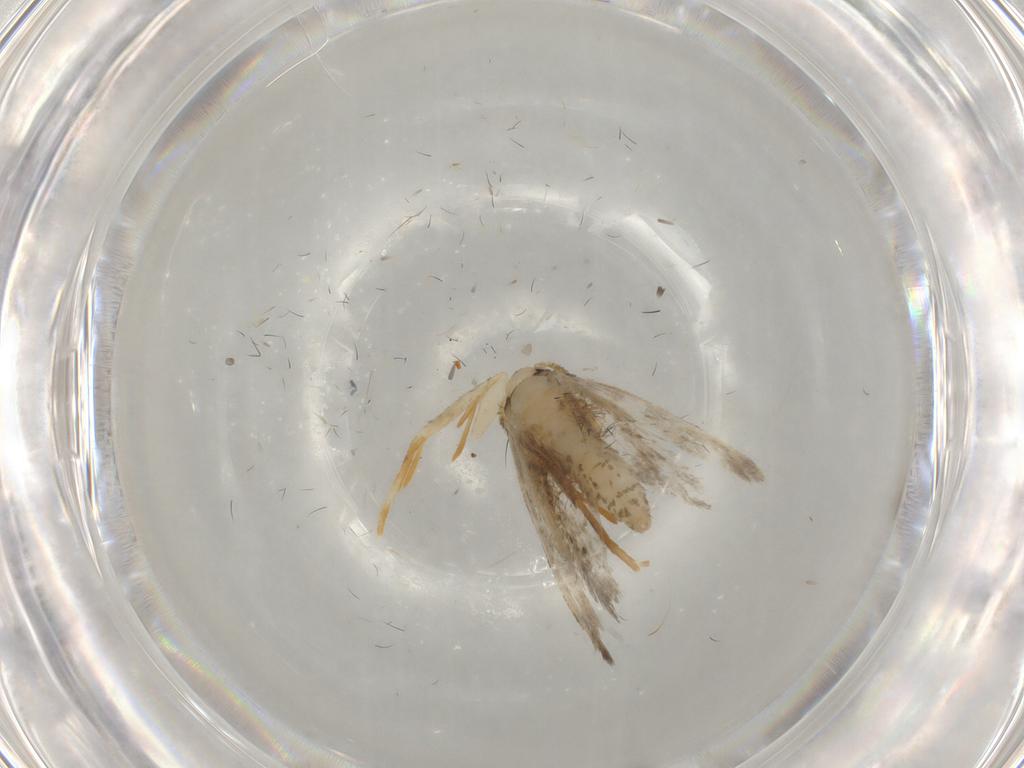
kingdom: Animalia
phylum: Arthropoda
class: Insecta
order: Lepidoptera
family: Psychidae
